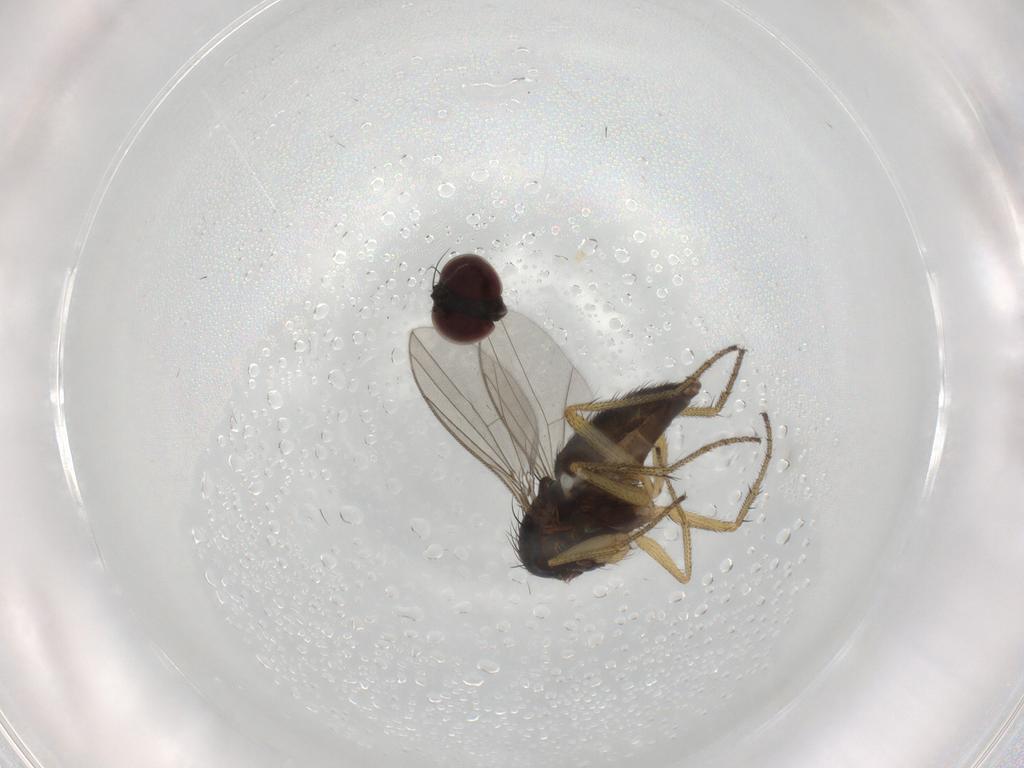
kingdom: Animalia
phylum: Arthropoda
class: Insecta
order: Diptera
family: Dolichopodidae
